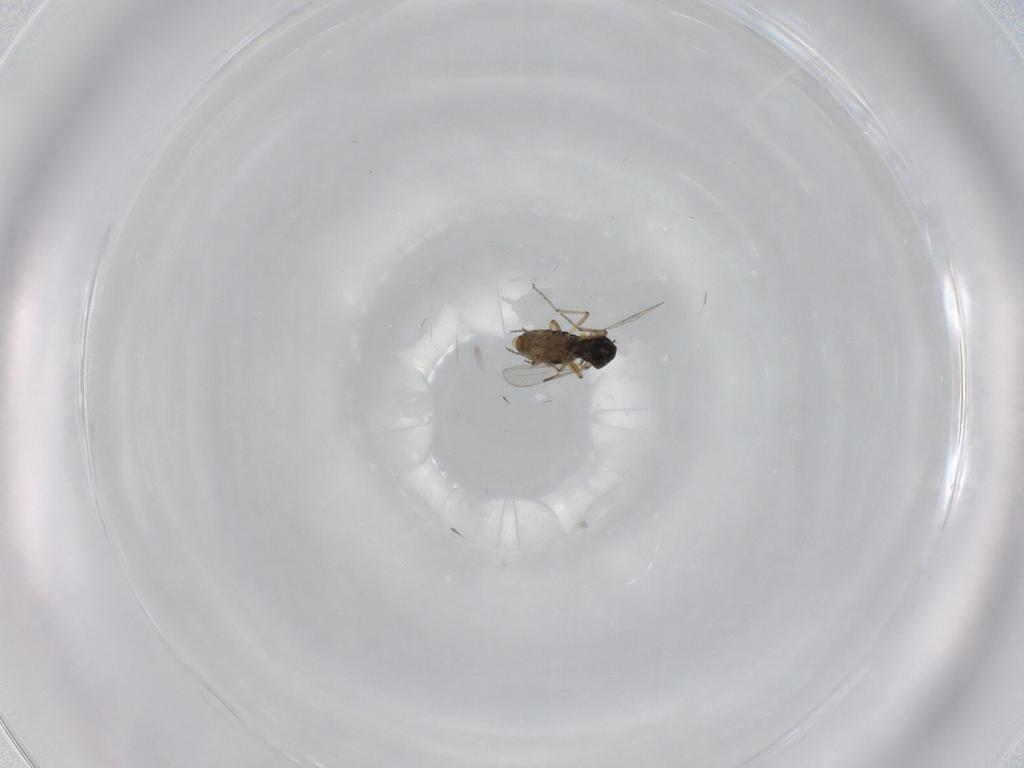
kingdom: Animalia
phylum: Arthropoda
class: Insecta
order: Diptera
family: Ceratopogonidae
